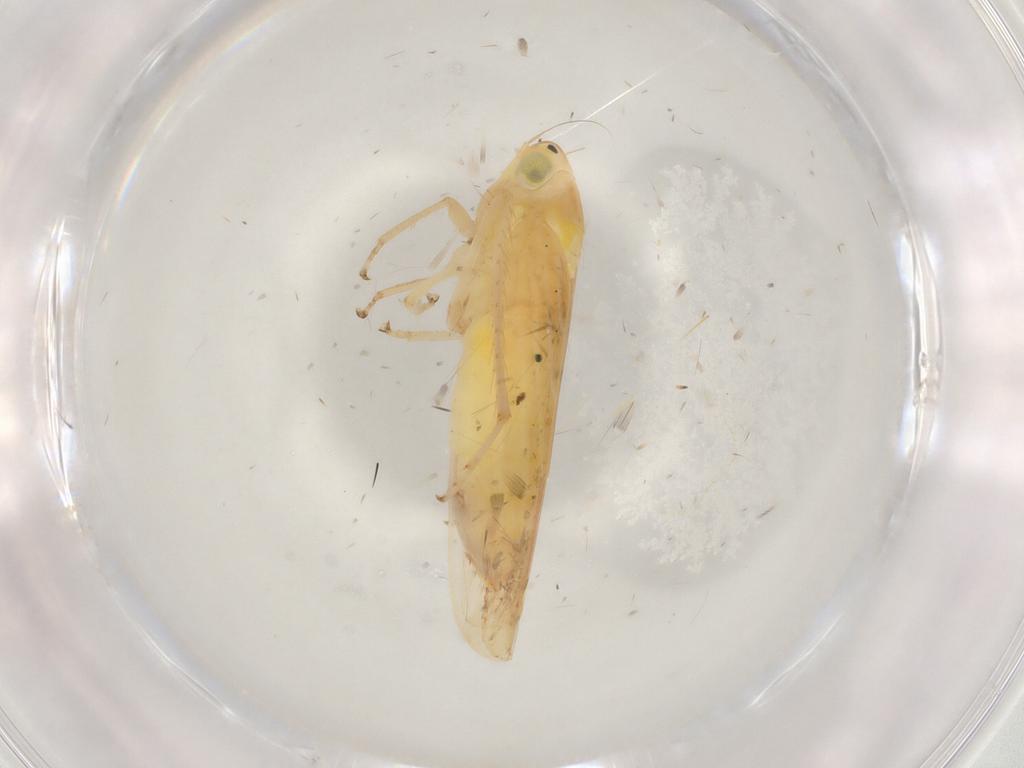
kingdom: Animalia
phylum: Arthropoda
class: Insecta
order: Hemiptera
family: Cicadellidae
